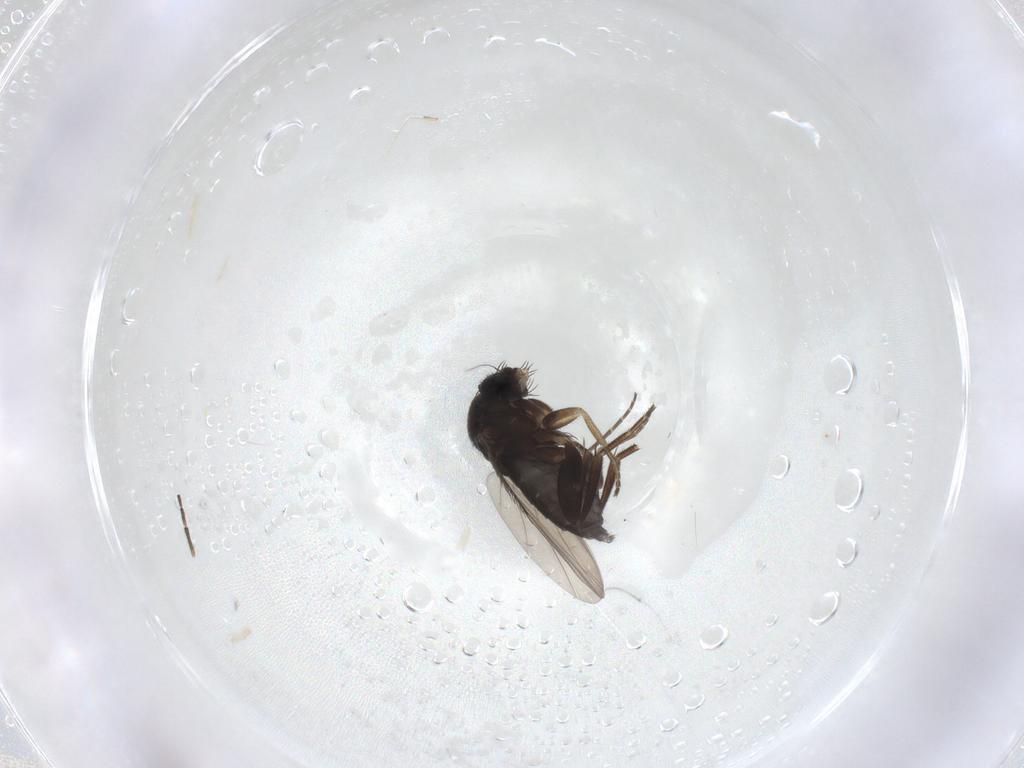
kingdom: Animalia
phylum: Arthropoda
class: Insecta
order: Diptera
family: Phoridae
